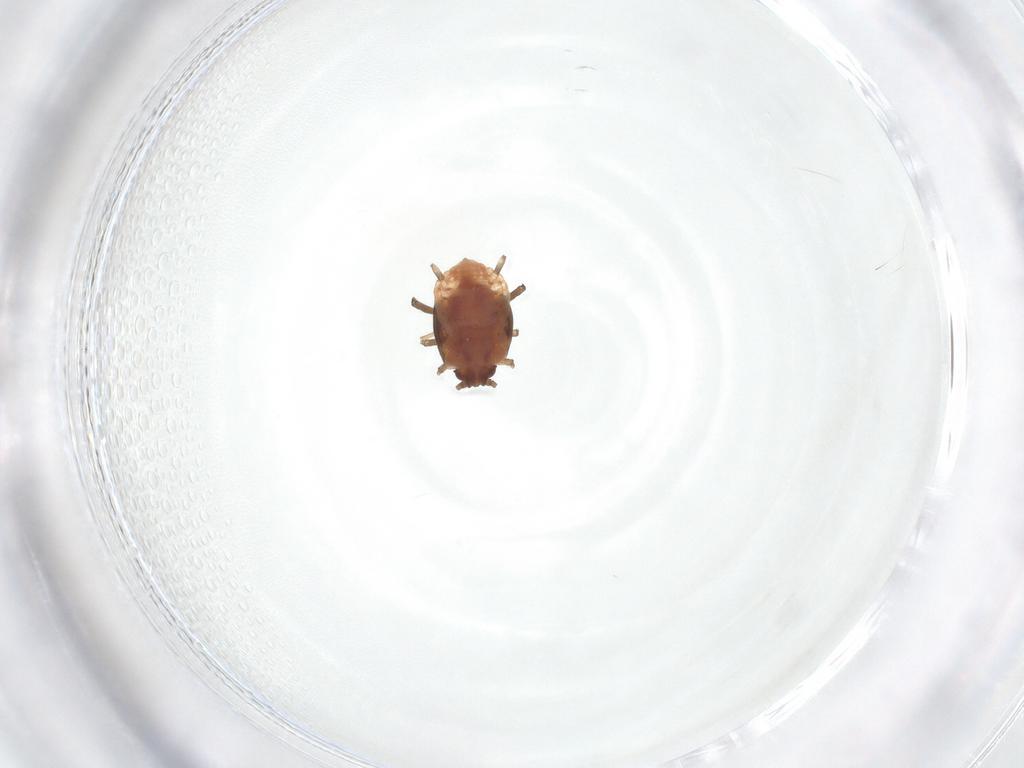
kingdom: Animalia
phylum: Arthropoda
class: Insecta
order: Hemiptera
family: Aphididae
